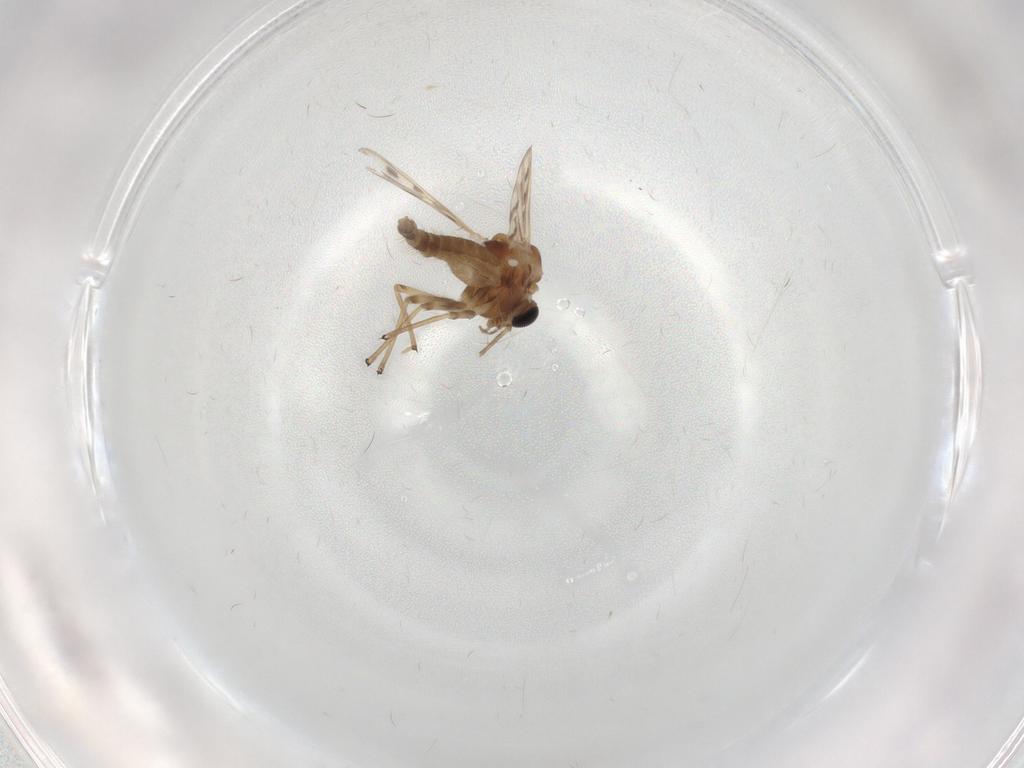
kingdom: Animalia
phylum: Arthropoda
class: Insecta
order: Diptera
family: Chironomidae
